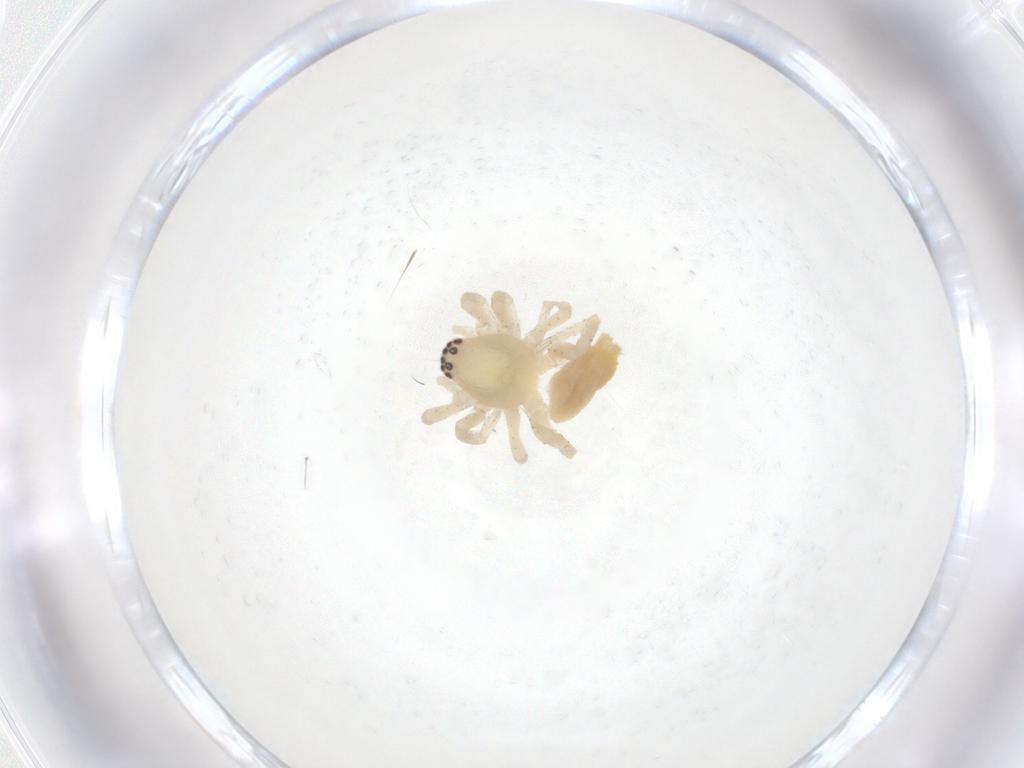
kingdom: Animalia
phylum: Arthropoda
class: Arachnida
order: Araneae
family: Clubionidae
